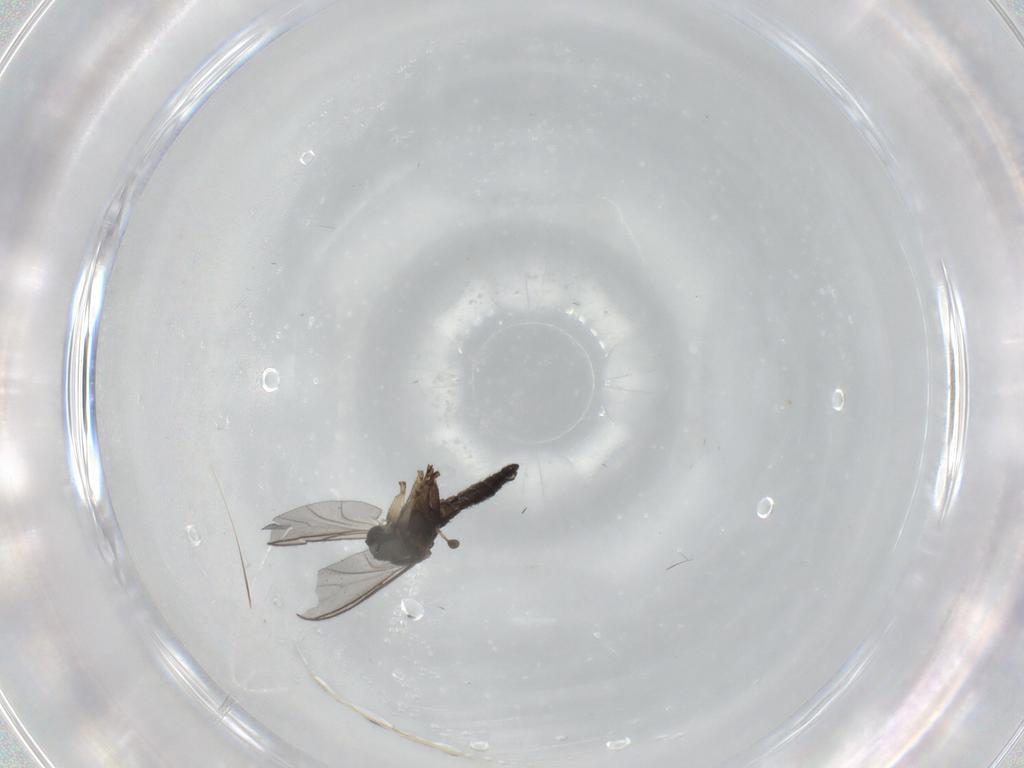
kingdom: Animalia
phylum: Arthropoda
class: Insecta
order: Diptera
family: Sciaridae
